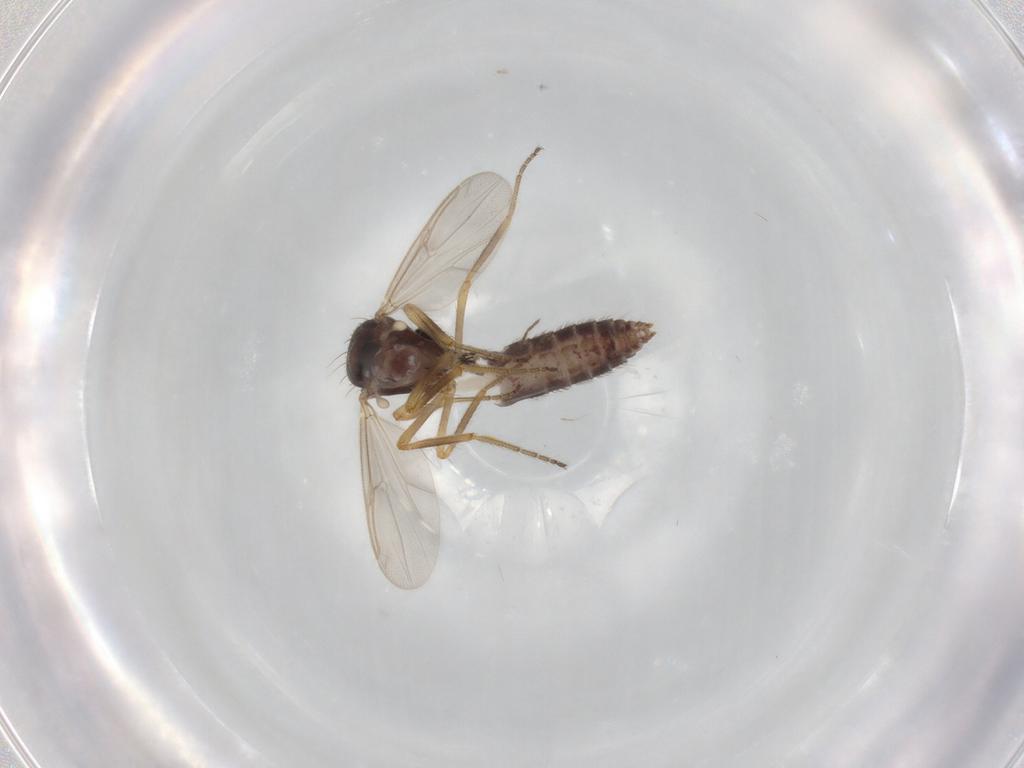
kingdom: Animalia
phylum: Arthropoda
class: Insecta
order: Diptera
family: Ceratopogonidae
